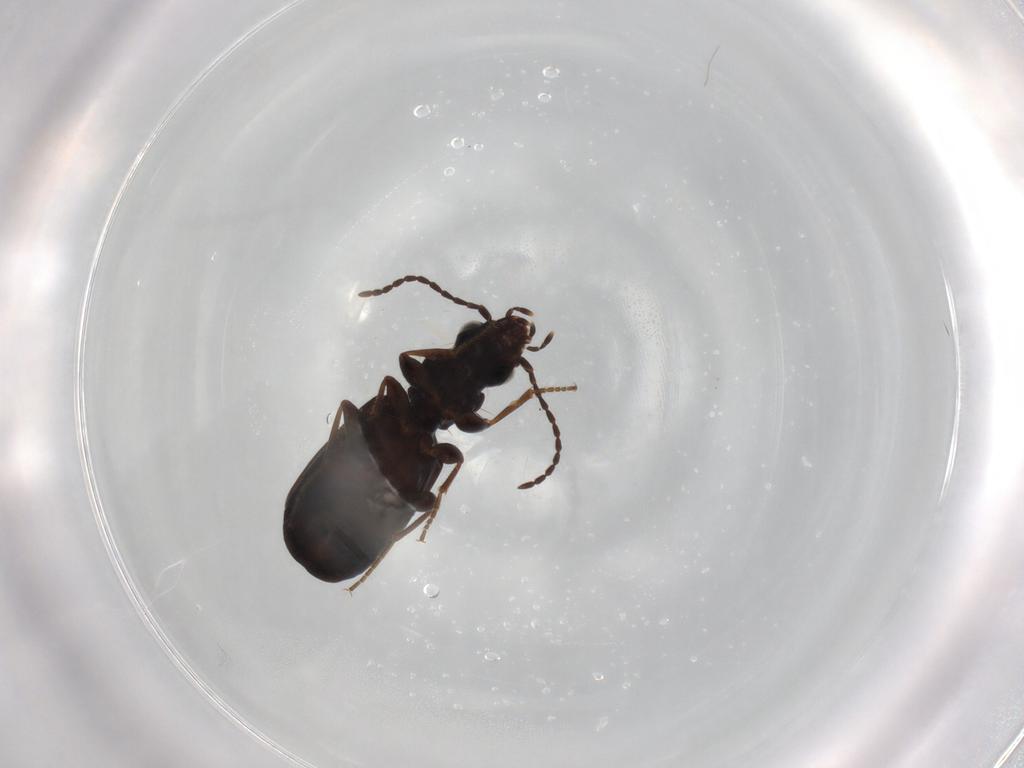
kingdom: Animalia
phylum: Arthropoda
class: Insecta
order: Coleoptera
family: Carabidae
